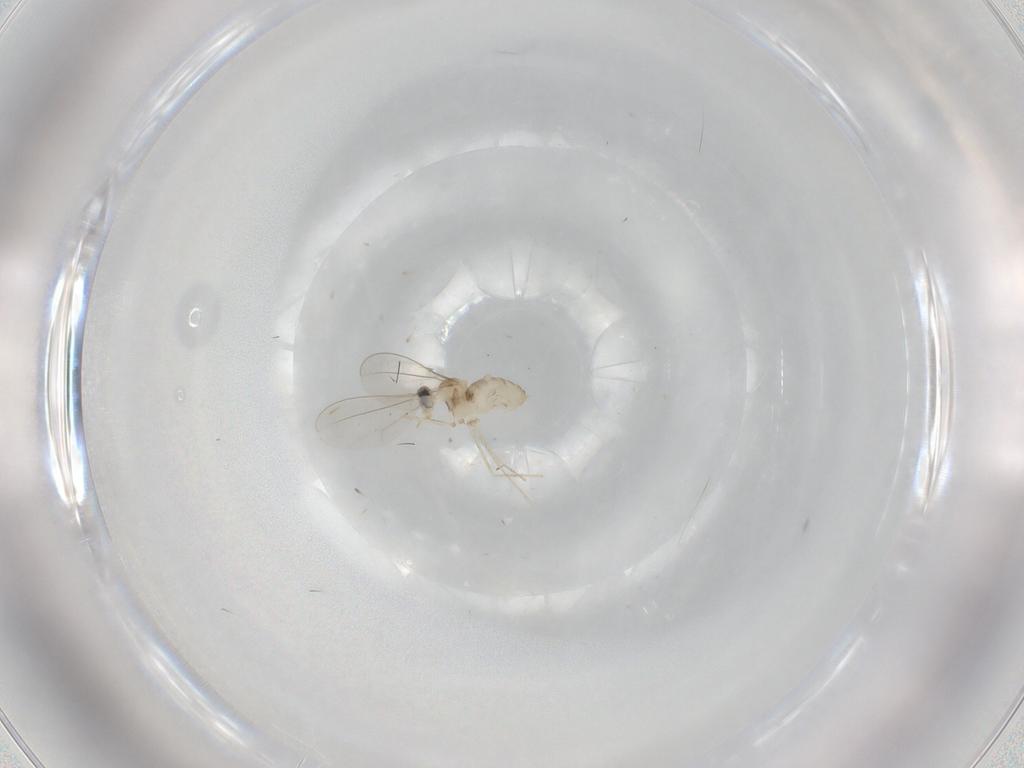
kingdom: Animalia
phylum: Arthropoda
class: Insecta
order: Diptera
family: Cecidomyiidae
